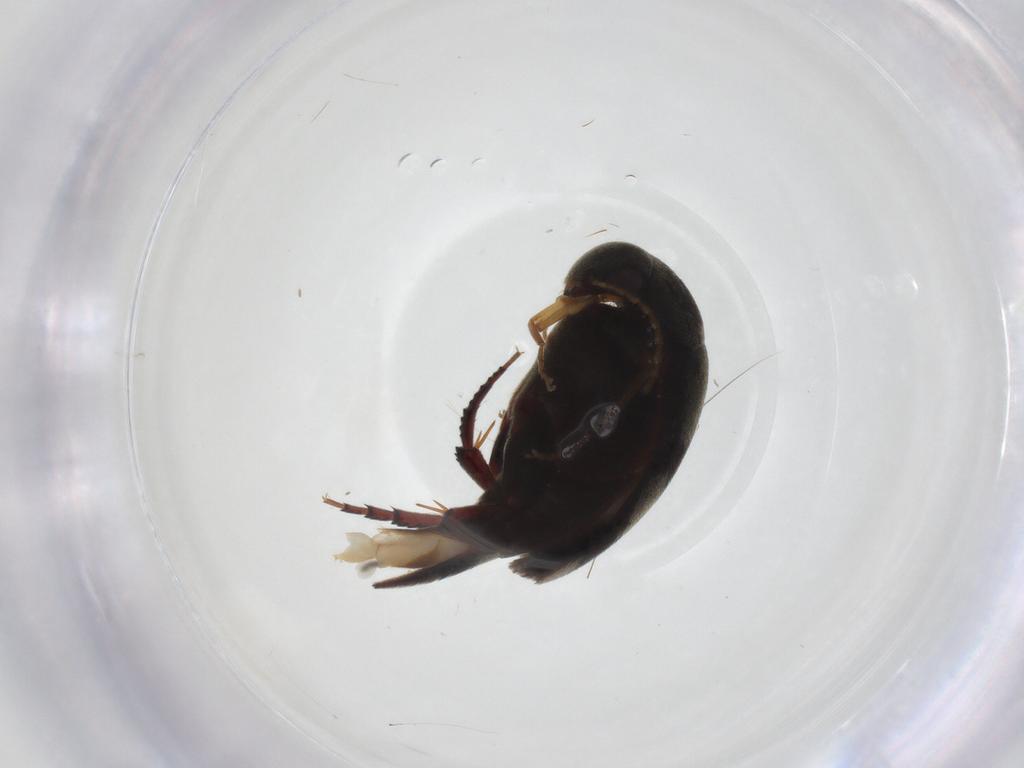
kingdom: Animalia
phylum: Arthropoda
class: Insecta
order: Coleoptera
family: Mordellidae
